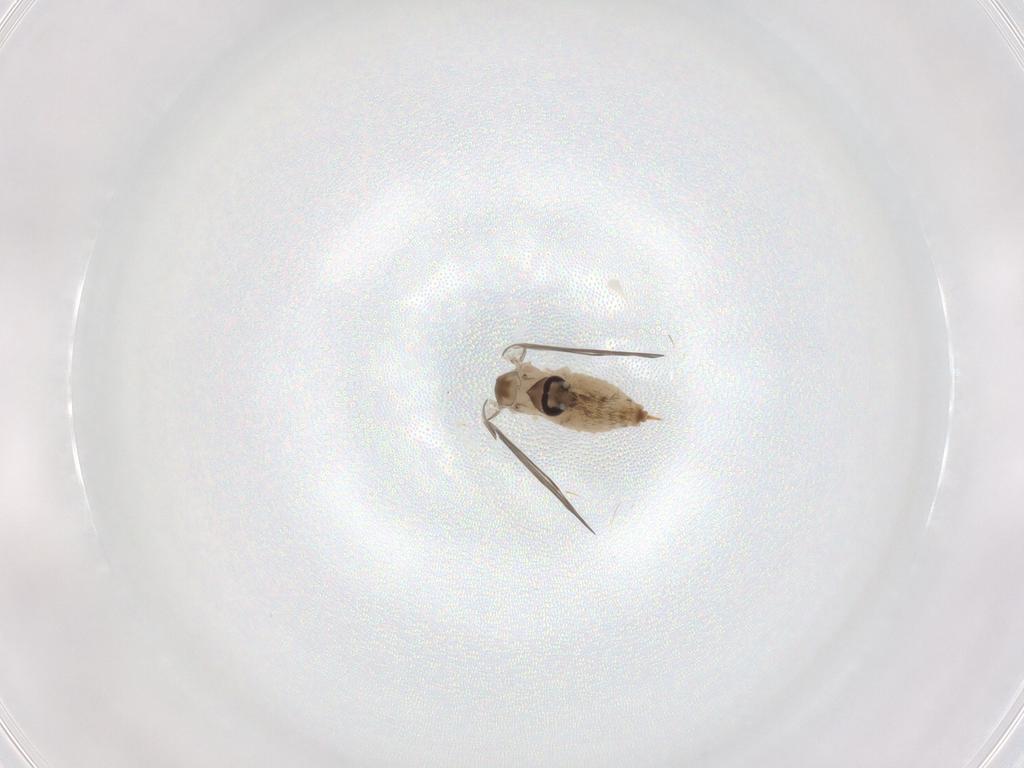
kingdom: Animalia
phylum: Arthropoda
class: Insecta
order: Diptera
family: Psychodidae
